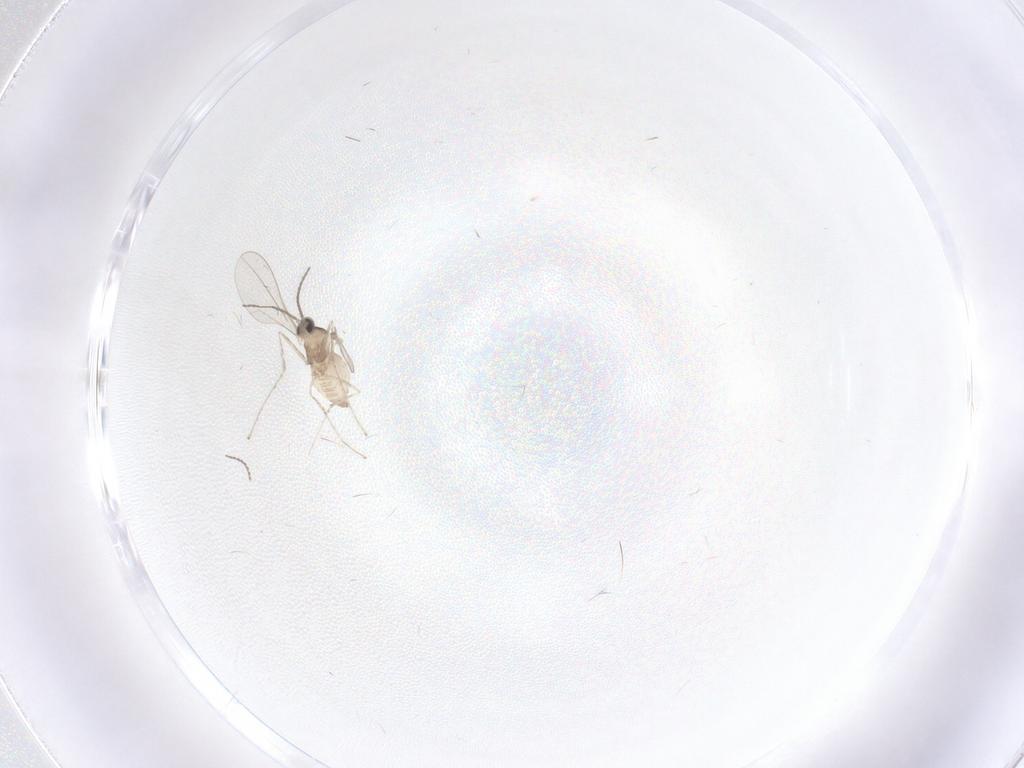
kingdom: Animalia
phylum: Arthropoda
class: Insecta
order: Diptera
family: Cecidomyiidae
